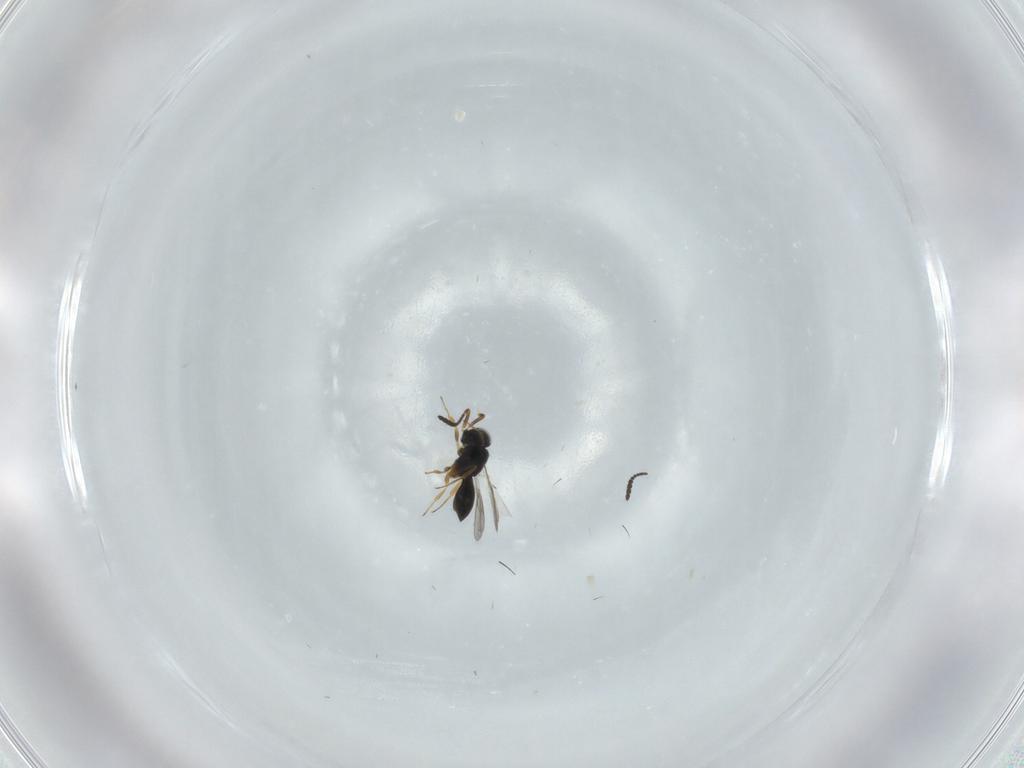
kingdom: Animalia
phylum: Arthropoda
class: Insecta
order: Hymenoptera
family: Scelionidae
